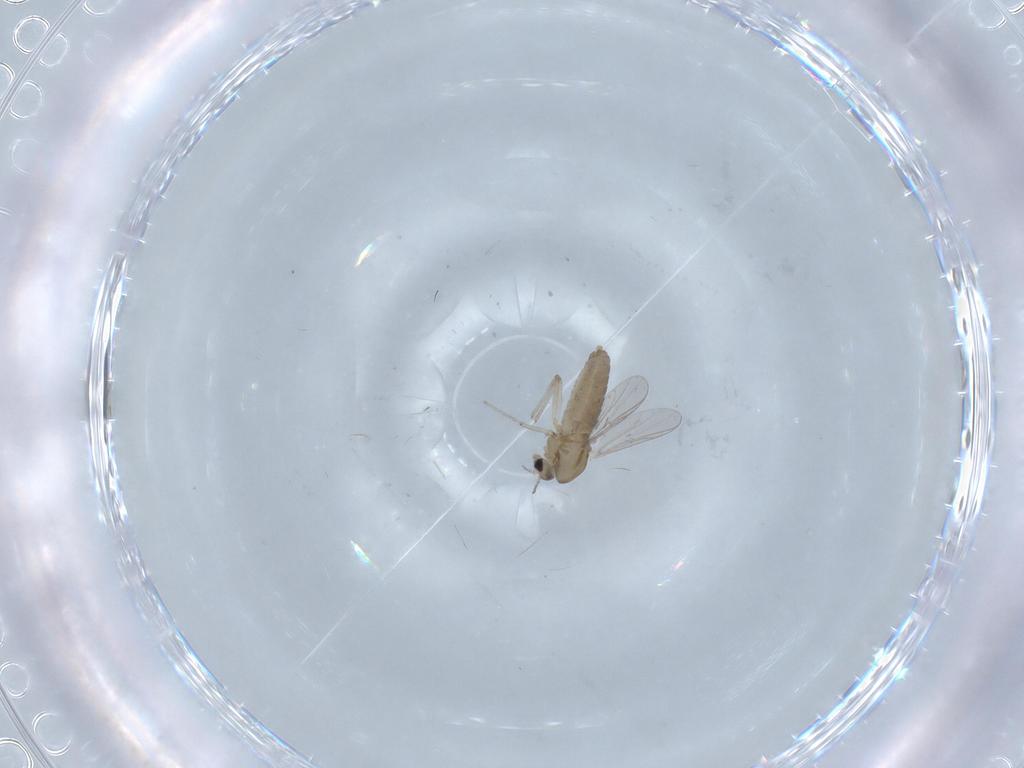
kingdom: Animalia
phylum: Arthropoda
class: Insecta
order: Diptera
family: Chironomidae
